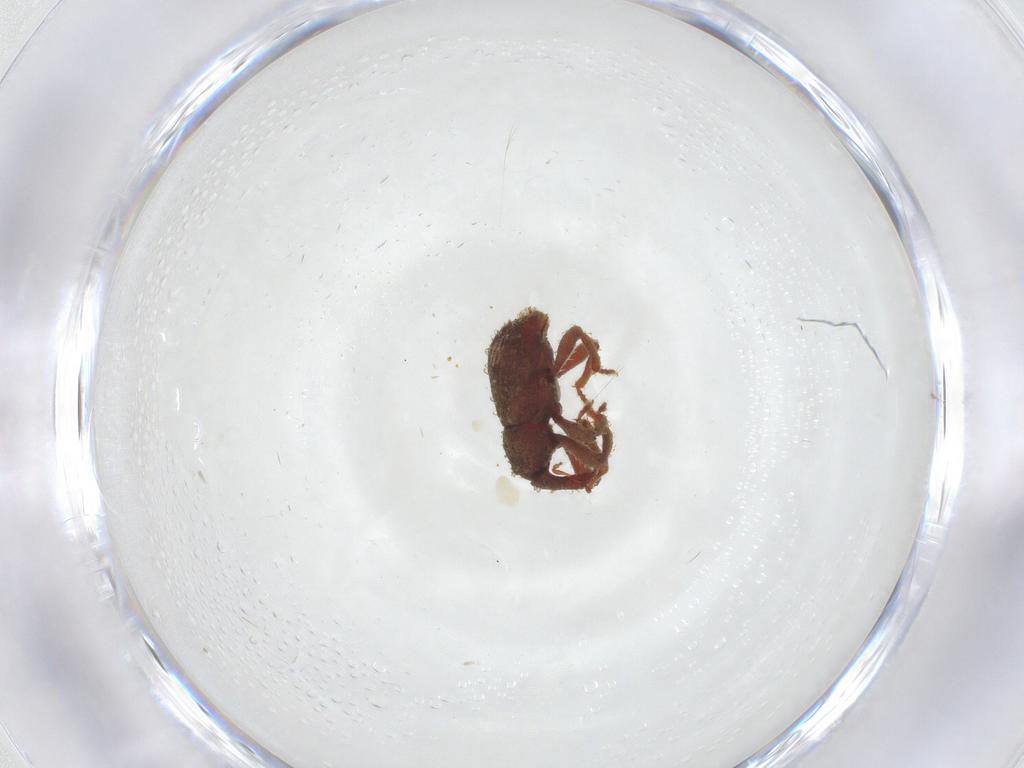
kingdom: Animalia
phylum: Arthropoda
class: Insecta
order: Coleoptera
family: Curculionidae
